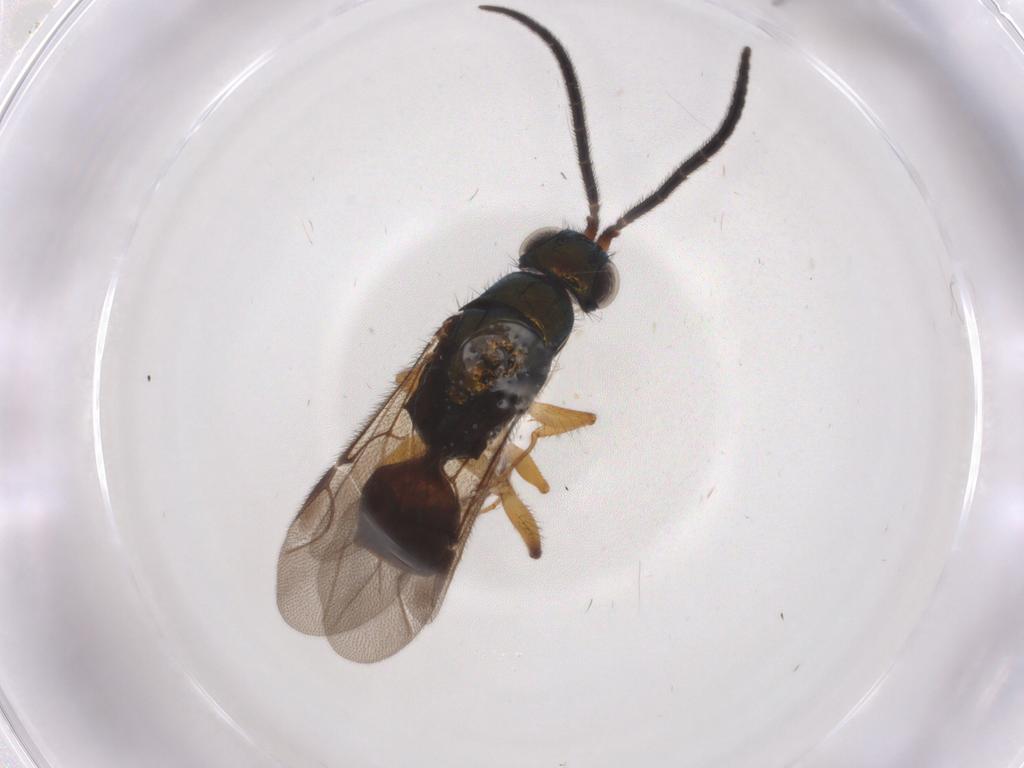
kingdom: Animalia
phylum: Arthropoda
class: Insecta
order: Hymenoptera
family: Chrysididae
